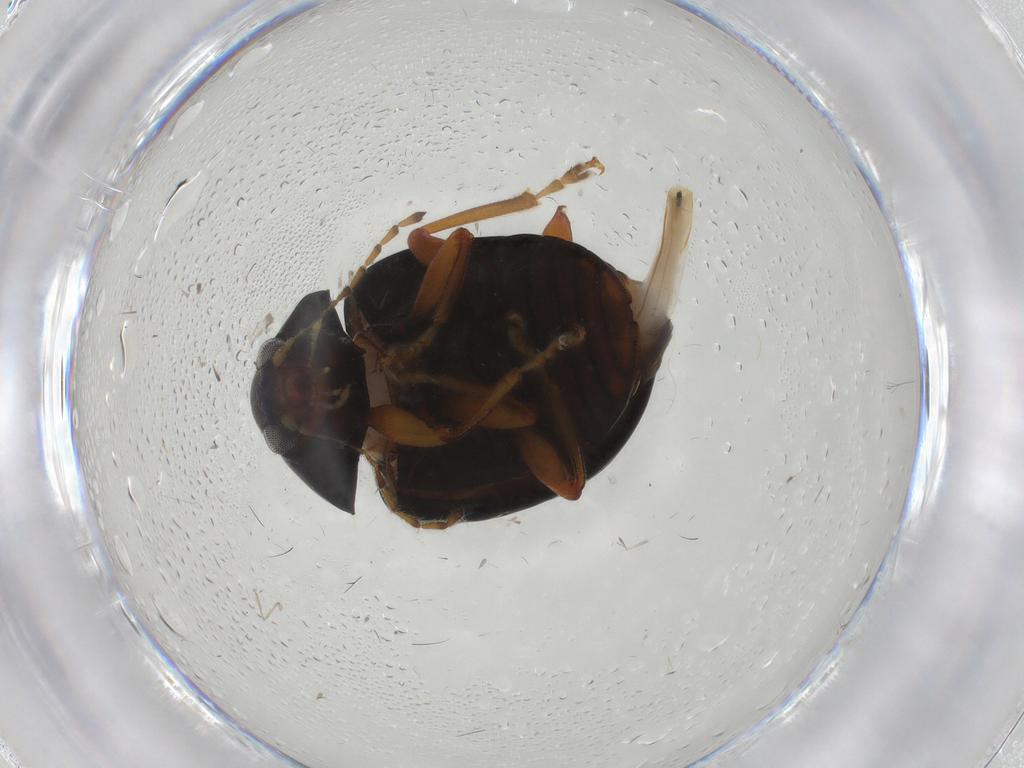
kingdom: Animalia
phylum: Arthropoda
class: Insecta
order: Coleoptera
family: Chrysomelidae
